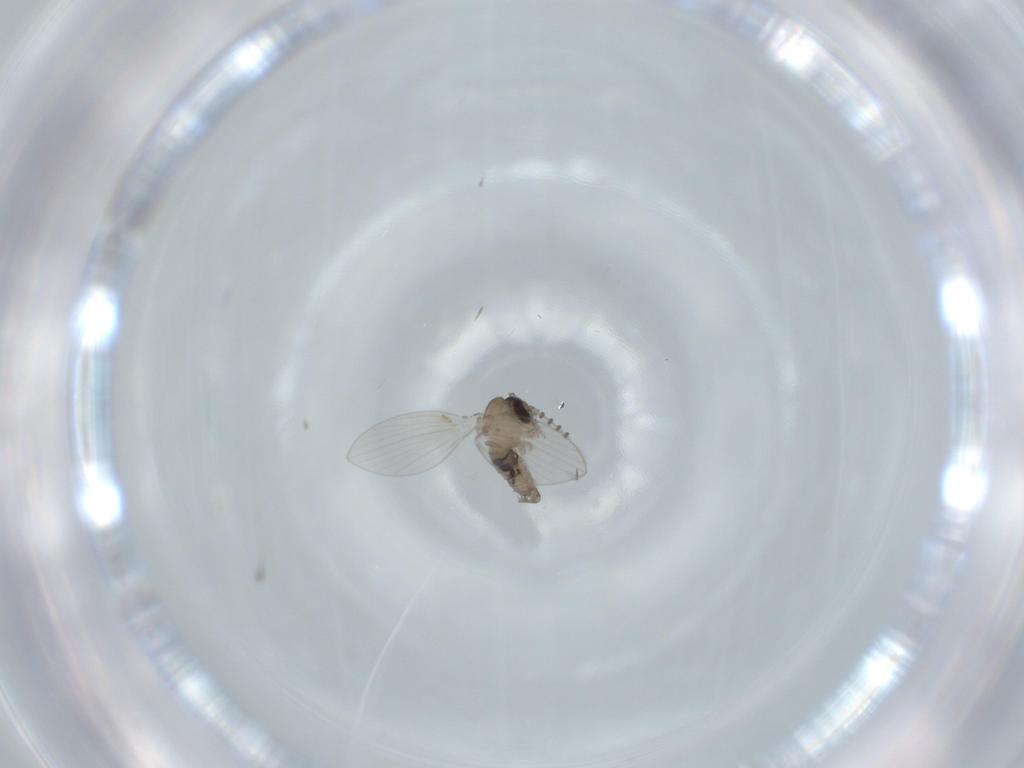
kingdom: Animalia
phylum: Arthropoda
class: Insecta
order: Diptera
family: Psychodidae
